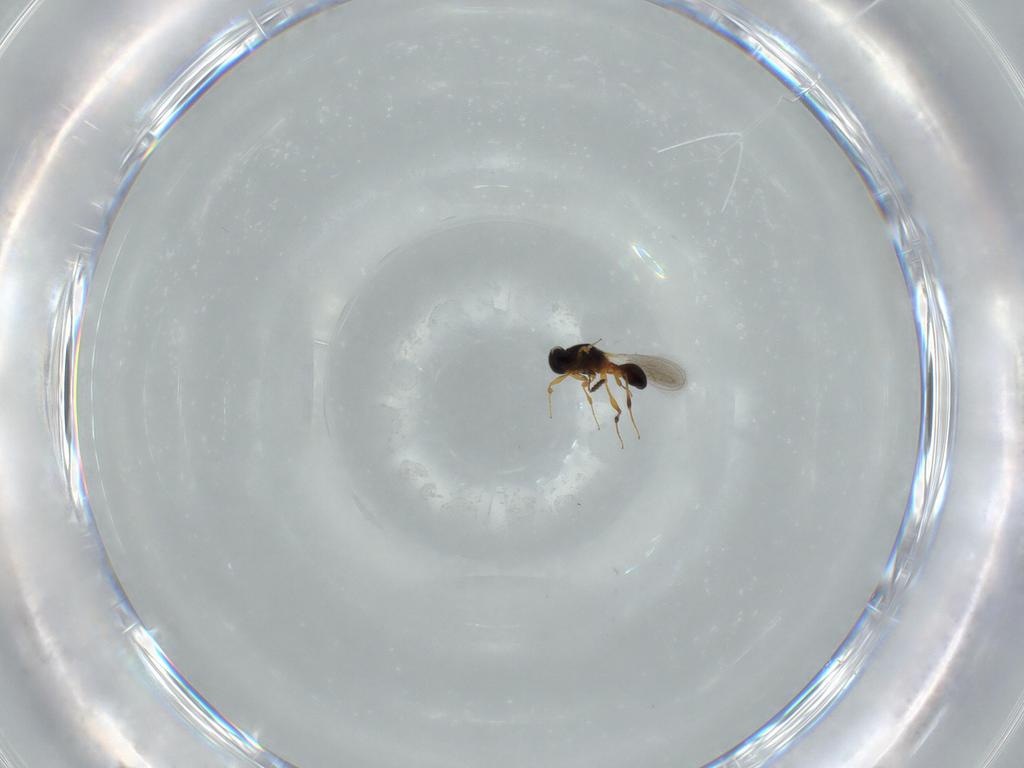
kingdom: Animalia
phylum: Arthropoda
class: Insecta
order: Hymenoptera
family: Platygastridae
